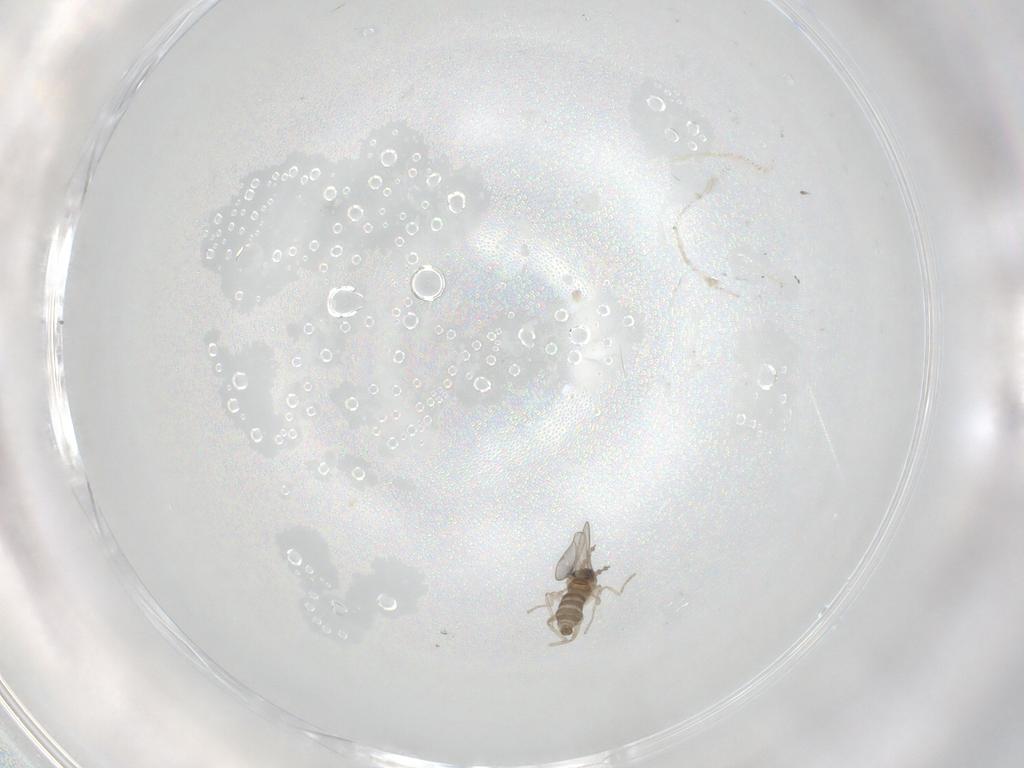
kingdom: Animalia
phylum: Arthropoda
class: Insecta
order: Diptera
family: Cecidomyiidae
